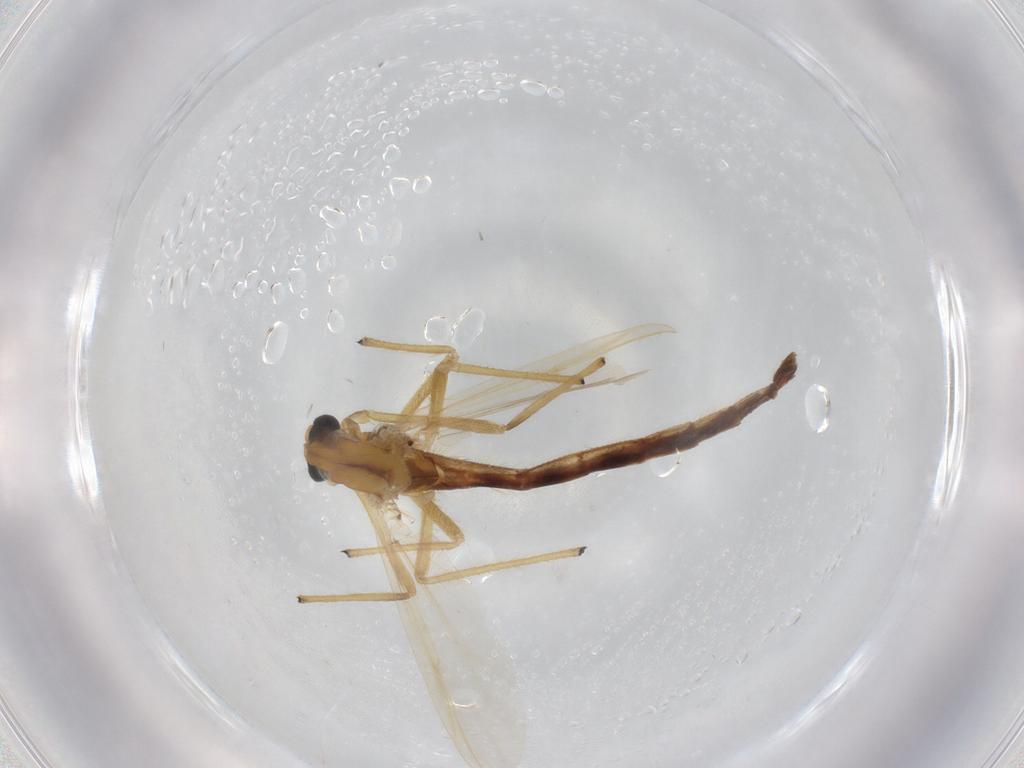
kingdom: Animalia
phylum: Arthropoda
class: Insecta
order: Diptera
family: Chironomidae
